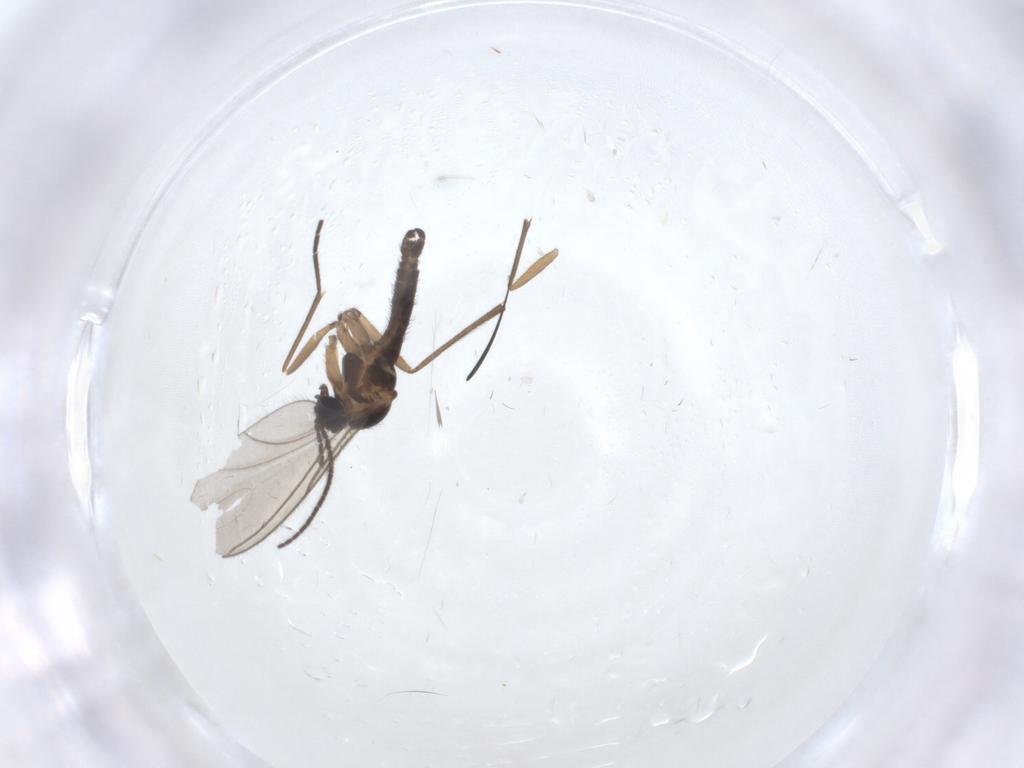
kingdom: Animalia
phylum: Arthropoda
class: Insecta
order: Diptera
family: Sciaridae
